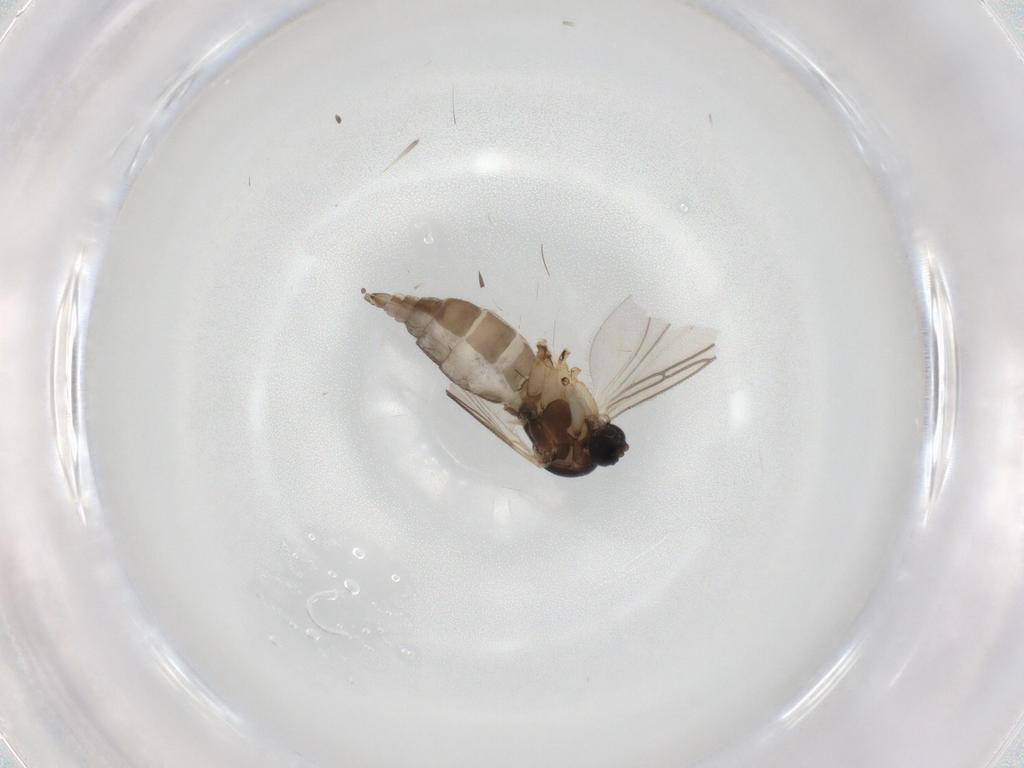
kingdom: Animalia
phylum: Arthropoda
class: Insecta
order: Diptera
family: Sciaridae
